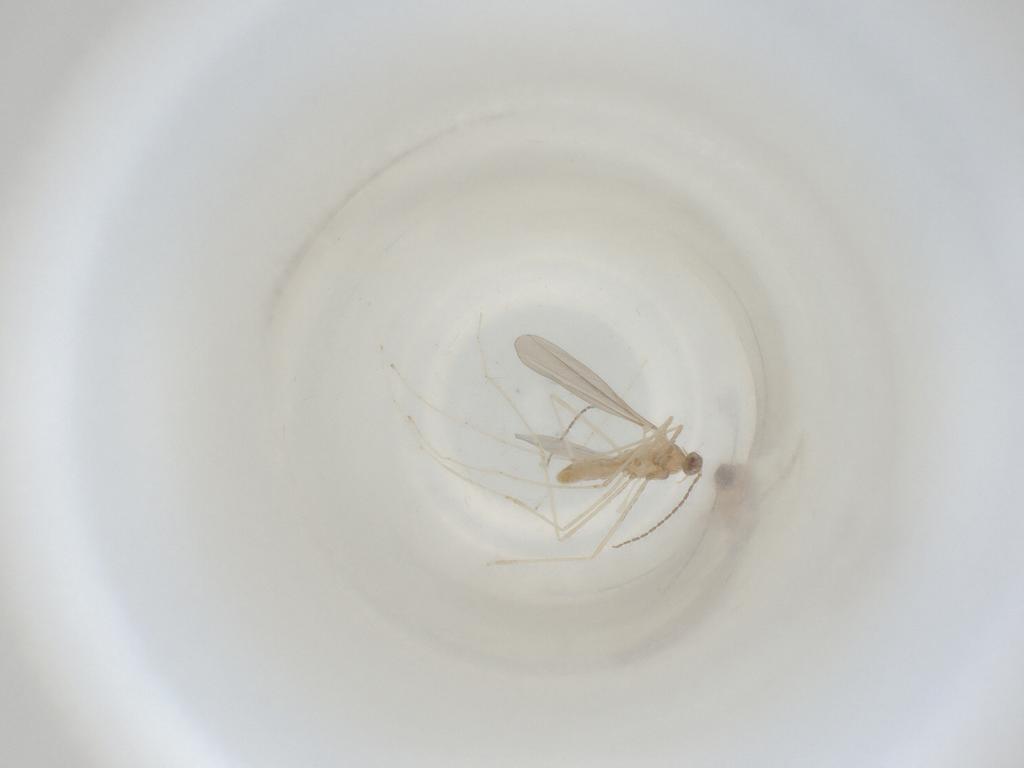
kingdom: Animalia
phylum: Arthropoda
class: Insecta
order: Diptera
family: Cecidomyiidae
